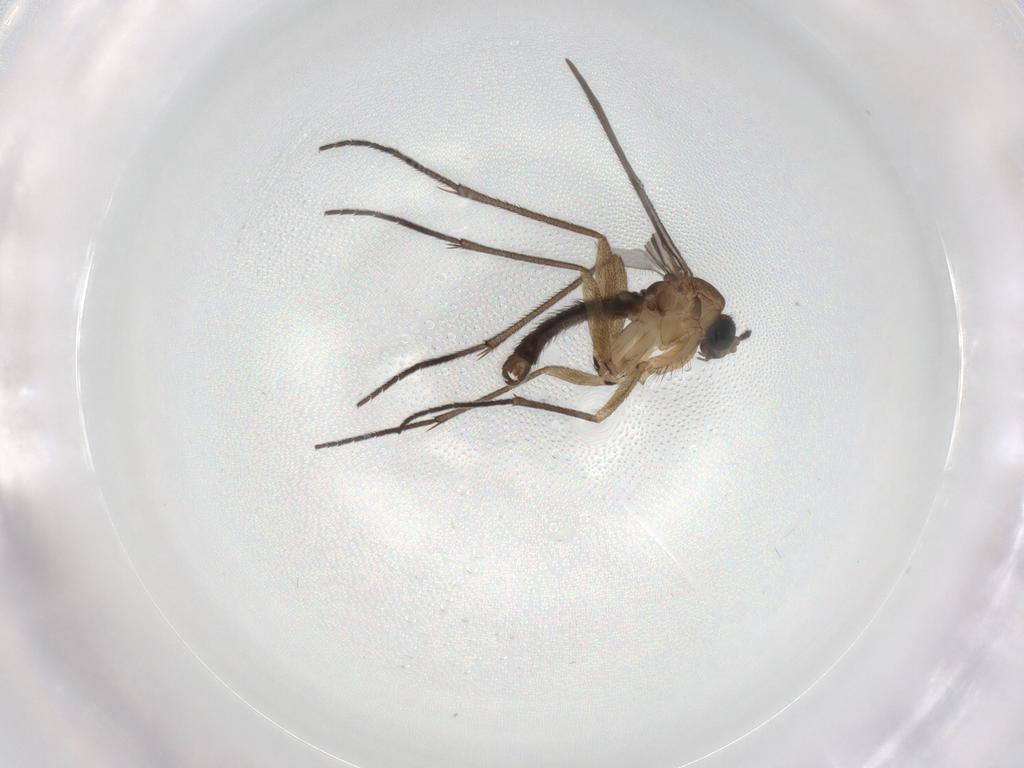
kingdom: Animalia
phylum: Arthropoda
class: Insecta
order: Diptera
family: Sciaridae
